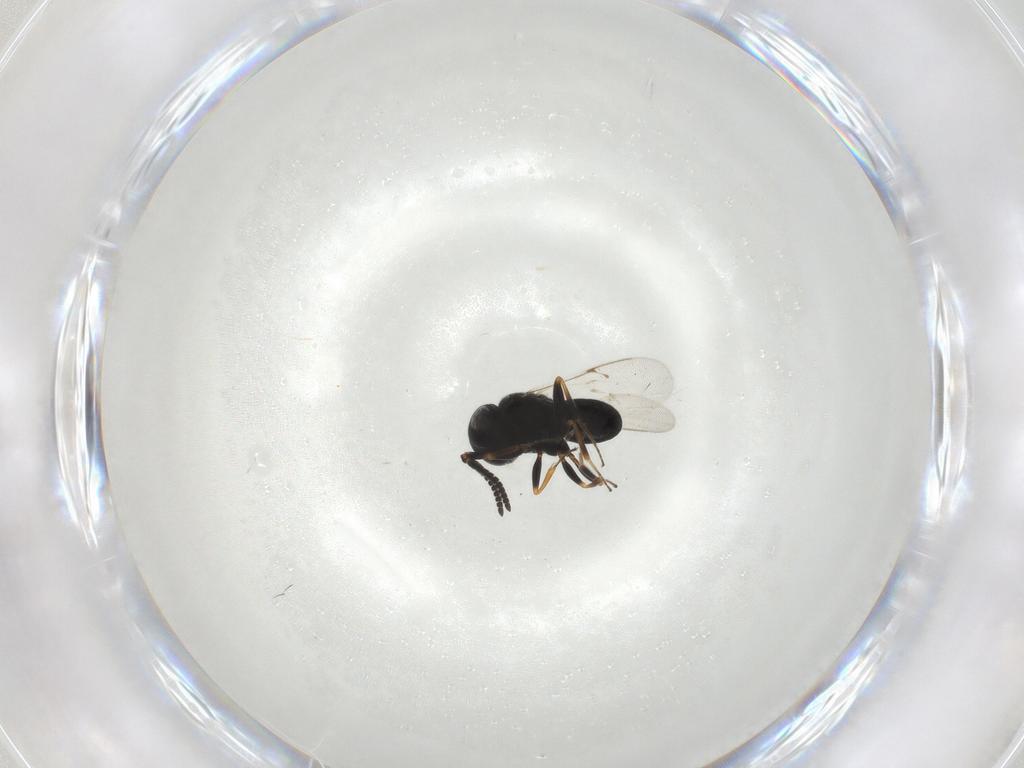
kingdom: Animalia
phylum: Arthropoda
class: Insecta
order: Hymenoptera
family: Scelionidae
